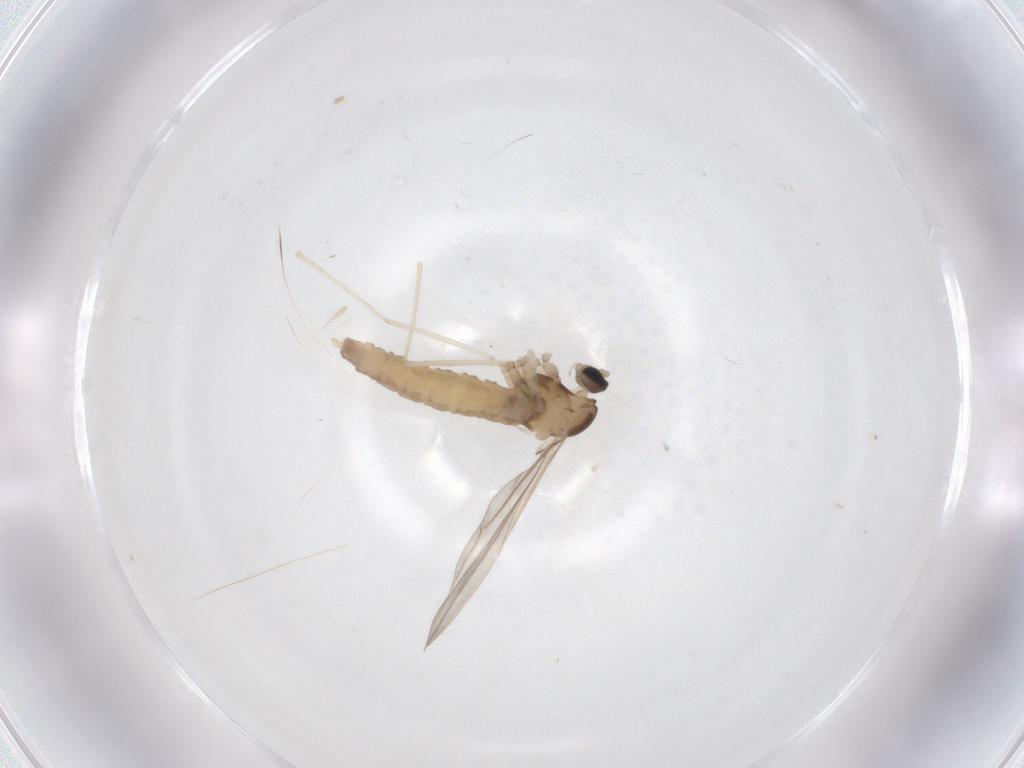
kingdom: Animalia
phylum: Arthropoda
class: Insecta
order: Diptera
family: Cecidomyiidae
